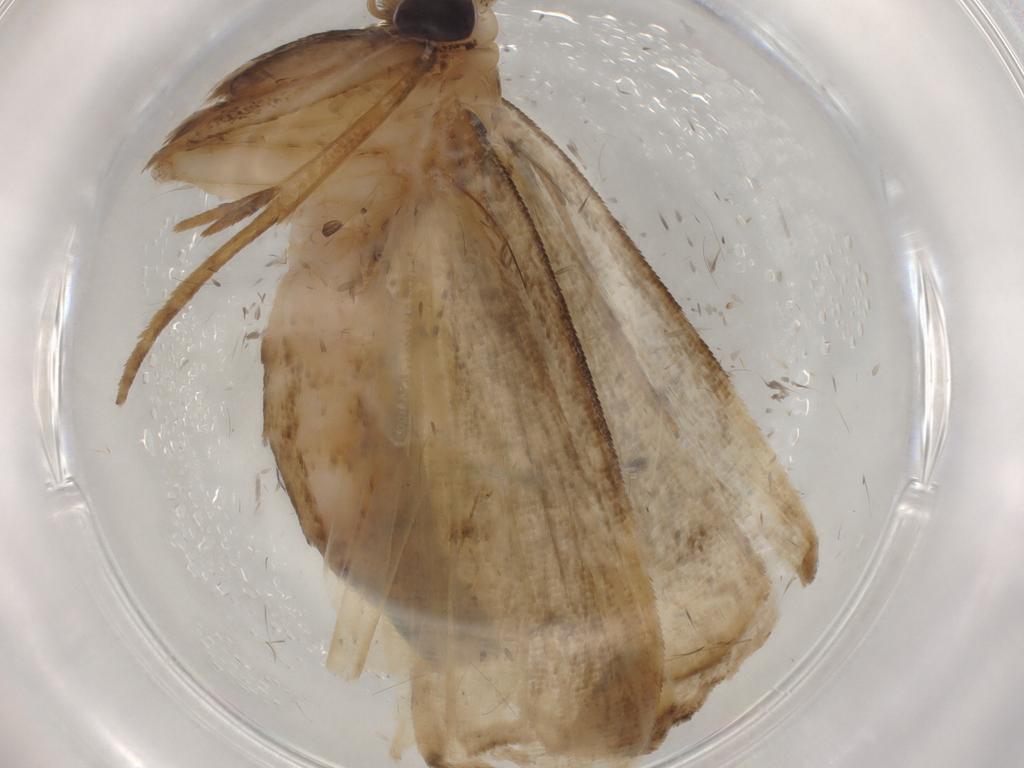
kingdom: Animalia
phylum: Arthropoda
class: Insecta
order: Lepidoptera
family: Noctuidae
